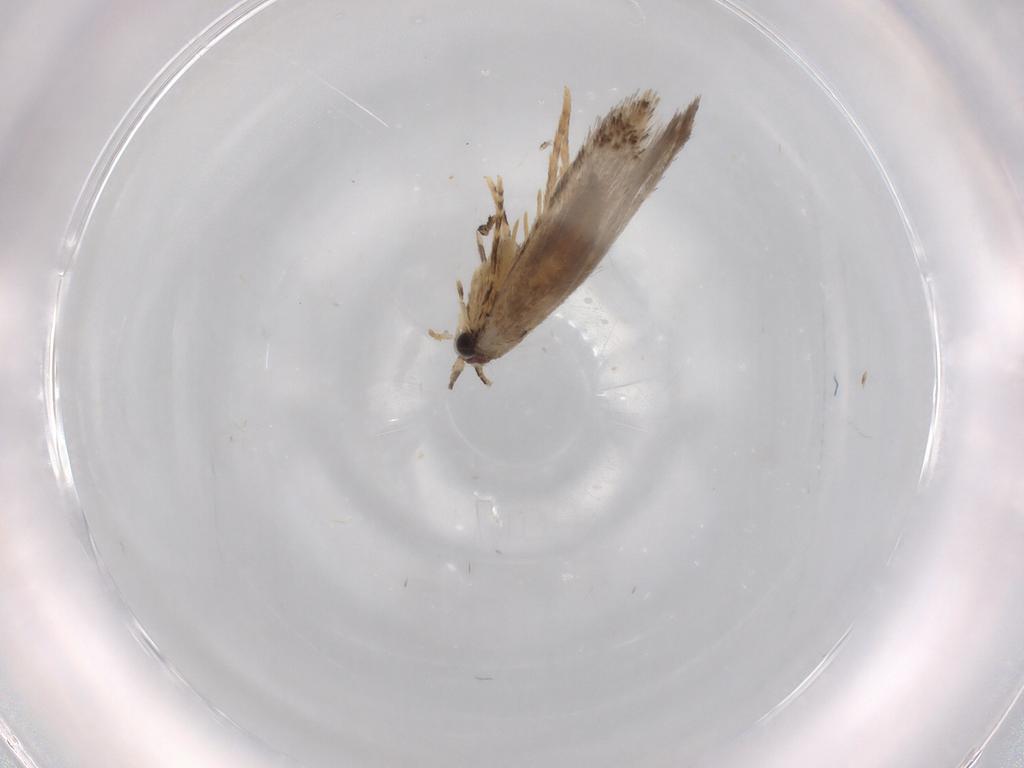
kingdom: Animalia
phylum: Arthropoda
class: Insecta
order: Lepidoptera
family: Tineidae
